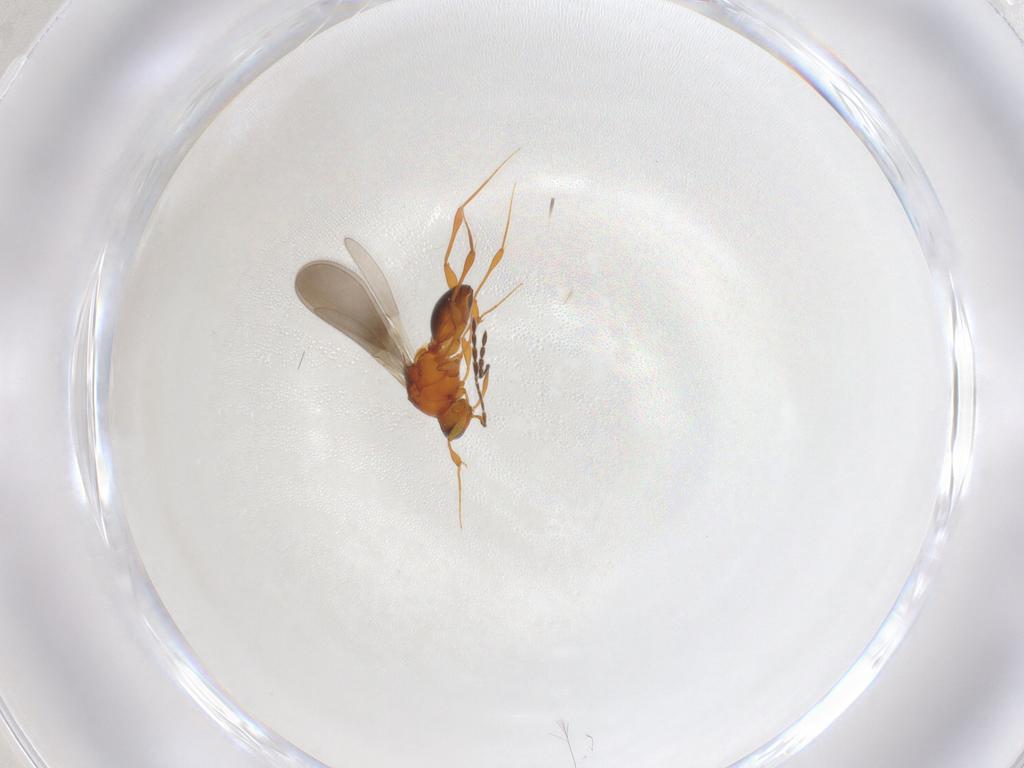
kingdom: Animalia
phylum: Arthropoda
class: Insecta
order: Hymenoptera
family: Platygastridae
